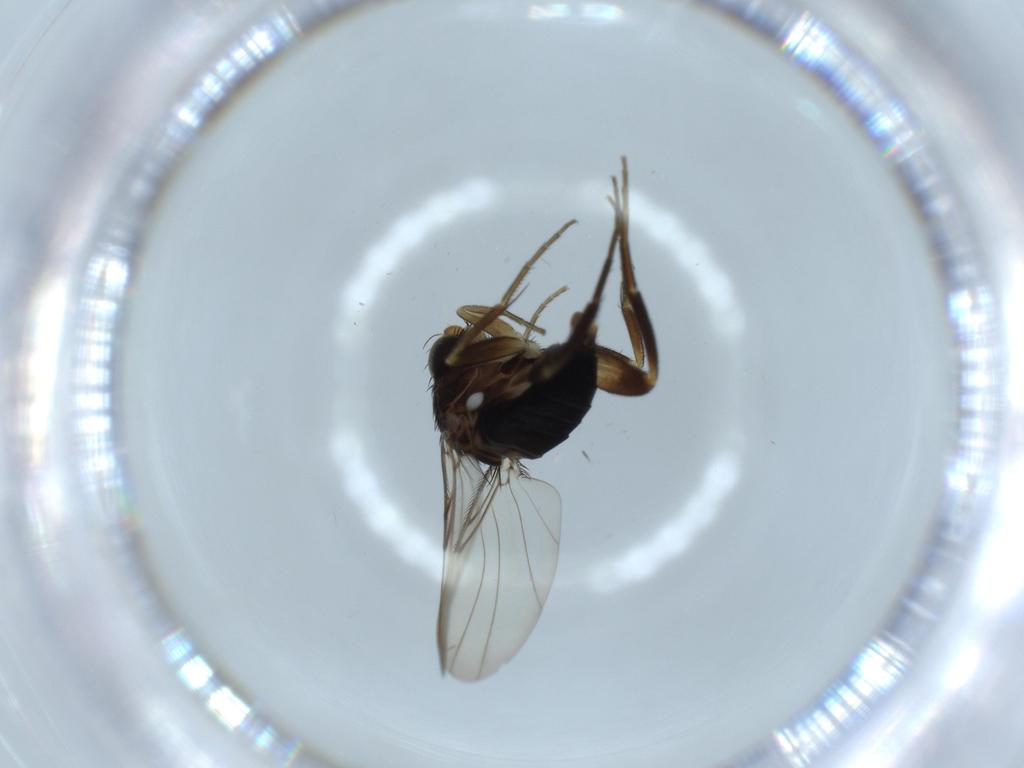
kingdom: Animalia
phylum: Arthropoda
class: Insecta
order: Diptera
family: Phoridae
